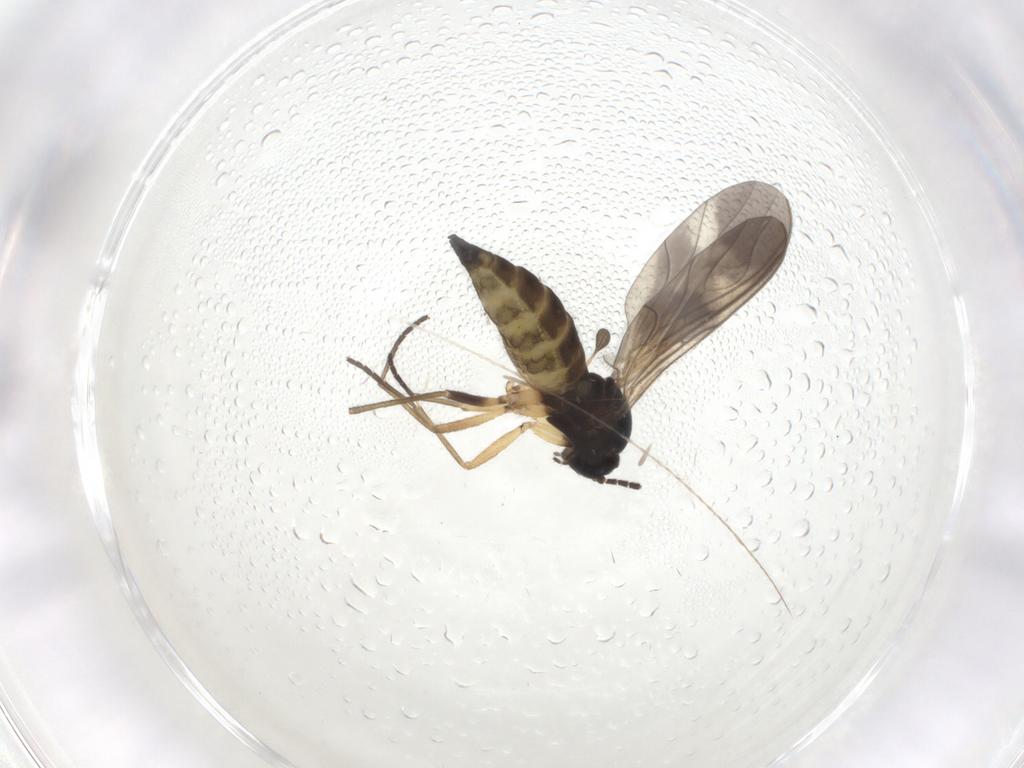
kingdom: Animalia
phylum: Arthropoda
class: Insecta
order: Diptera
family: Sciaridae
